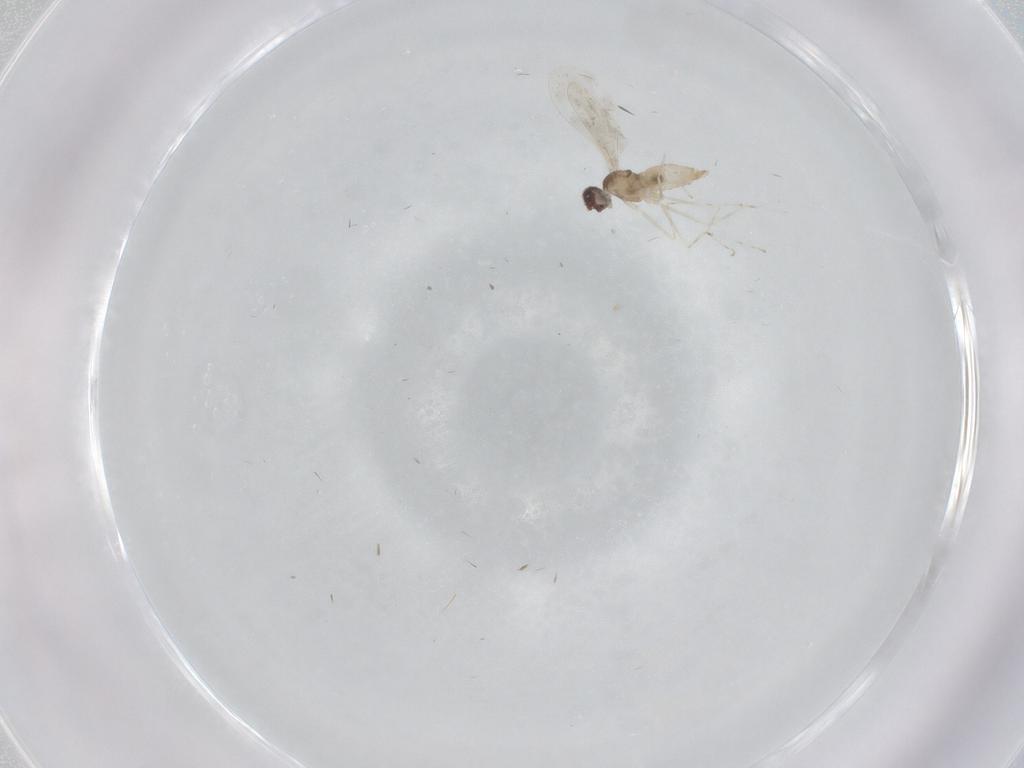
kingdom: Animalia
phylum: Arthropoda
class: Insecta
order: Diptera
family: Cecidomyiidae
